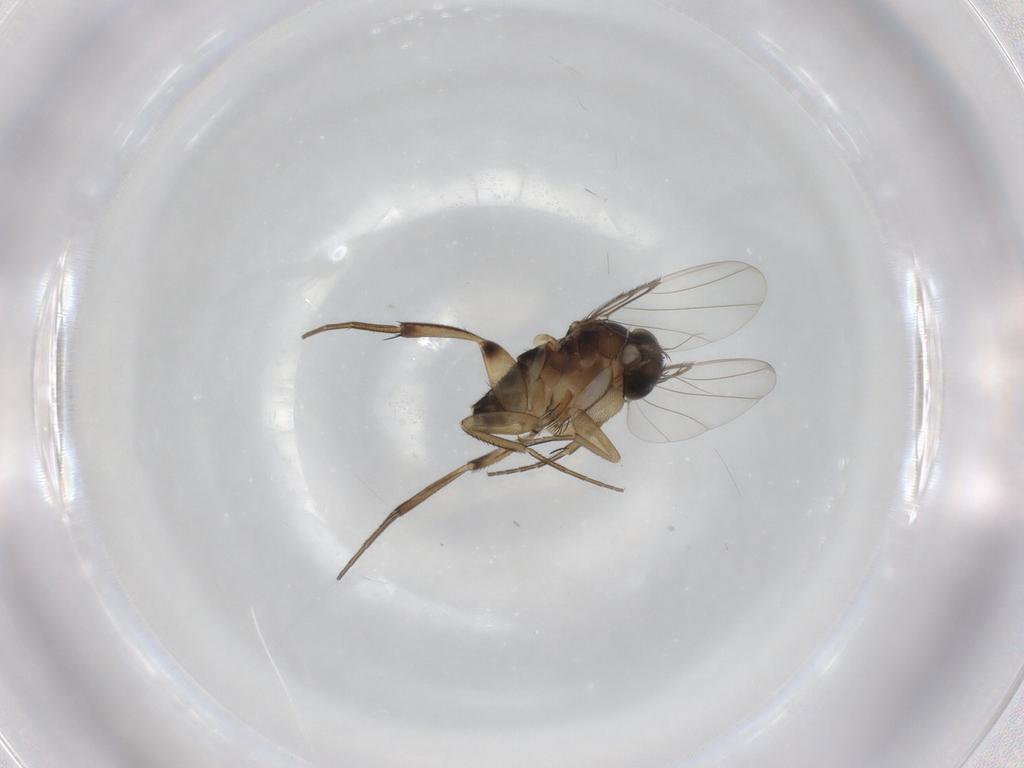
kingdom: Animalia
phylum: Arthropoda
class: Insecta
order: Diptera
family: Phoridae
